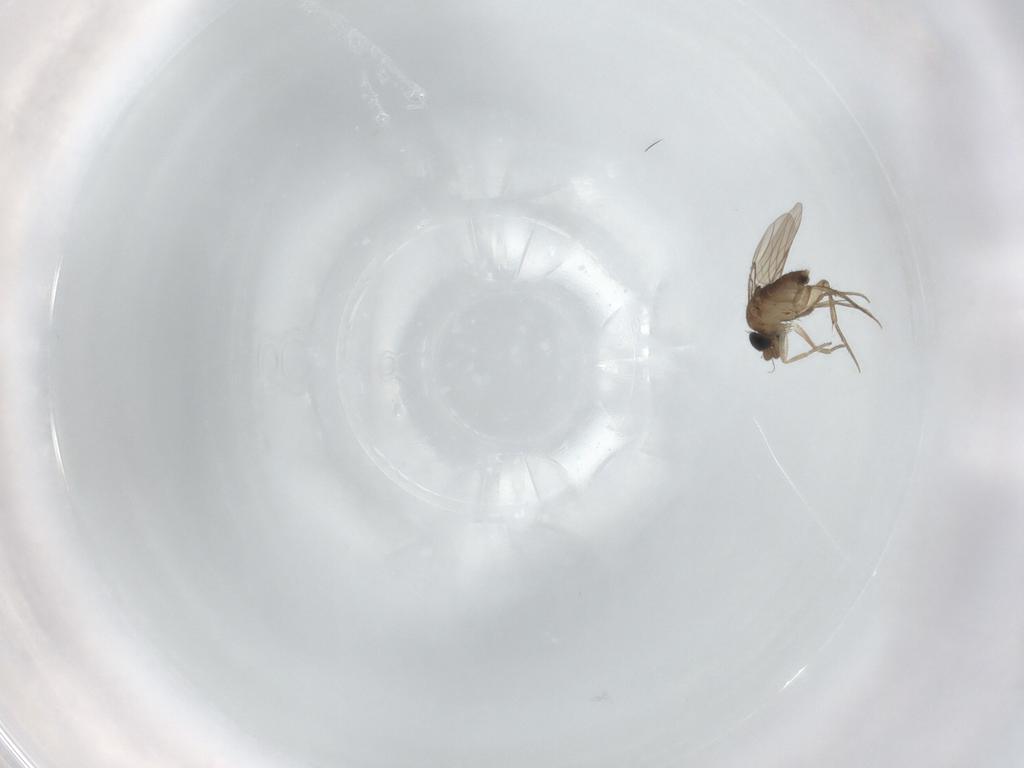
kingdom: Animalia
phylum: Arthropoda
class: Insecta
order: Diptera
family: Phoridae
